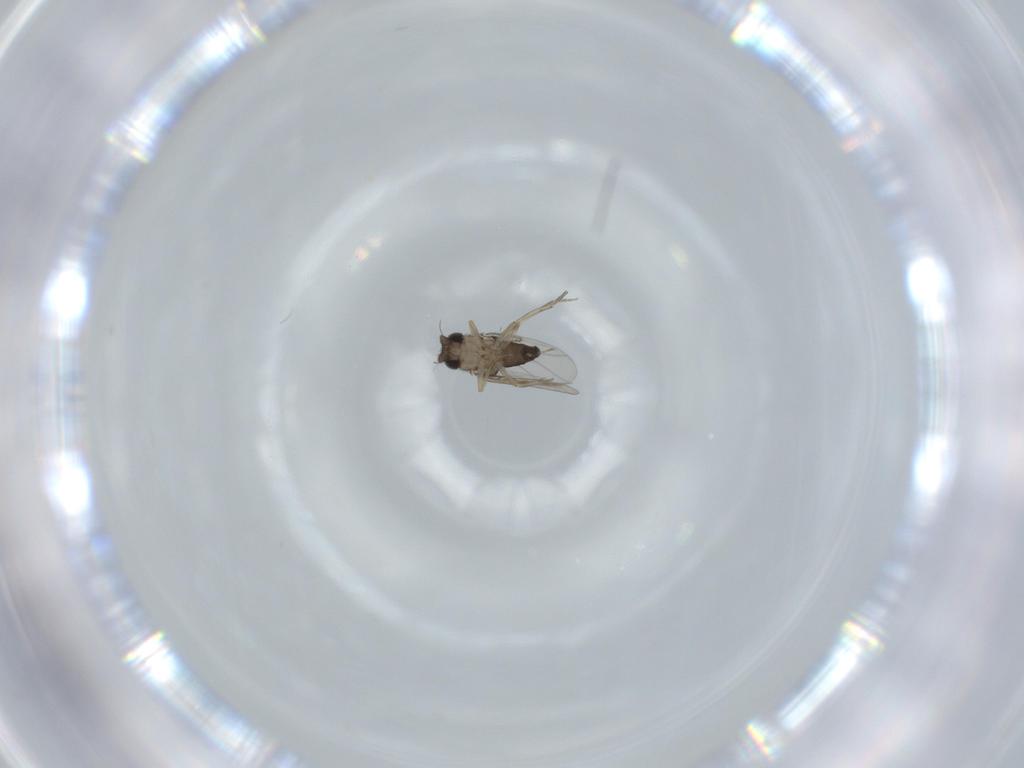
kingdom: Animalia
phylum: Arthropoda
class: Insecta
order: Diptera
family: Phoridae
